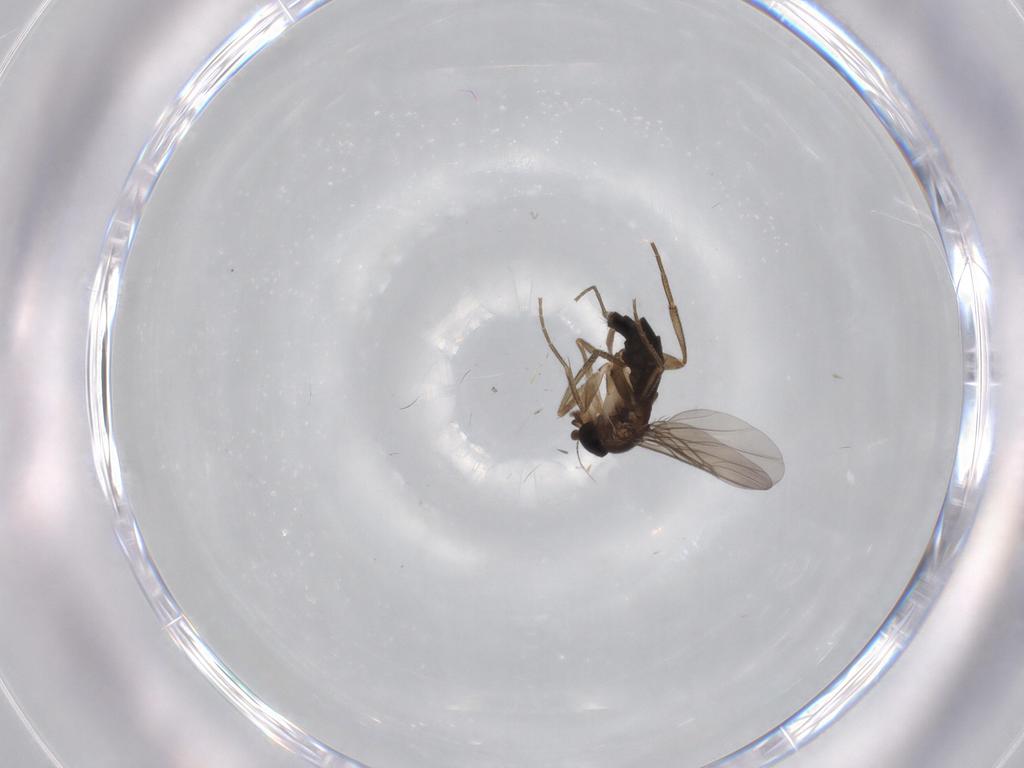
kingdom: Animalia
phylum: Arthropoda
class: Insecta
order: Diptera
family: Phoridae
